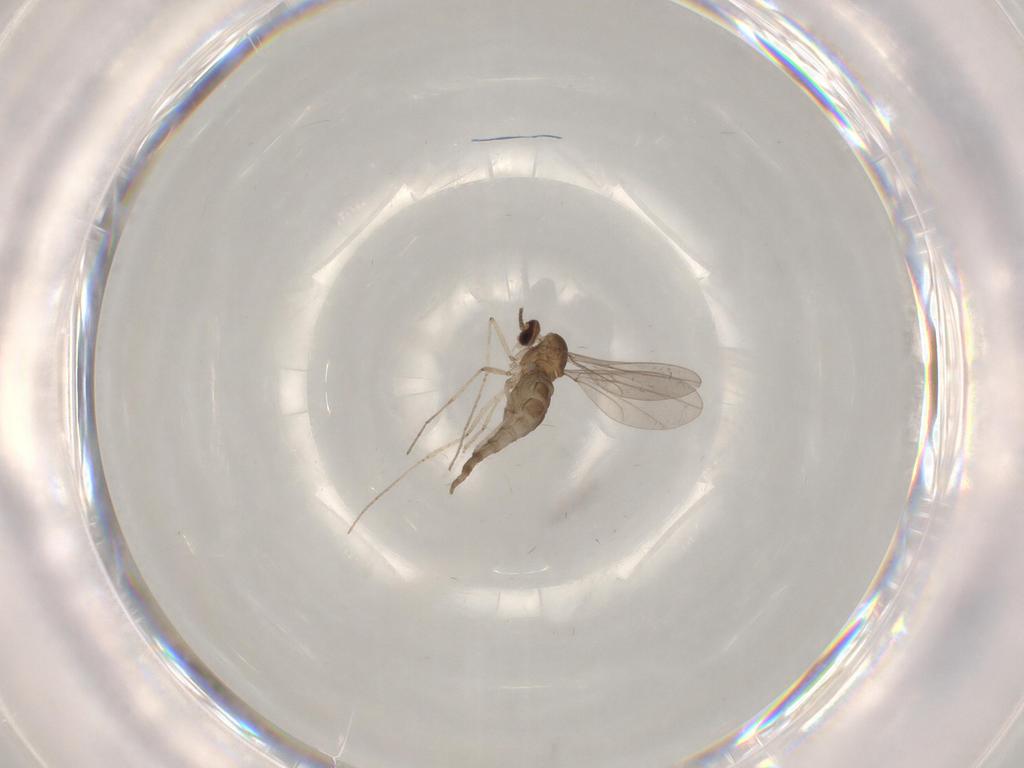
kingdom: Animalia
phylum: Arthropoda
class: Insecta
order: Diptera
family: Cecidomyiidae
